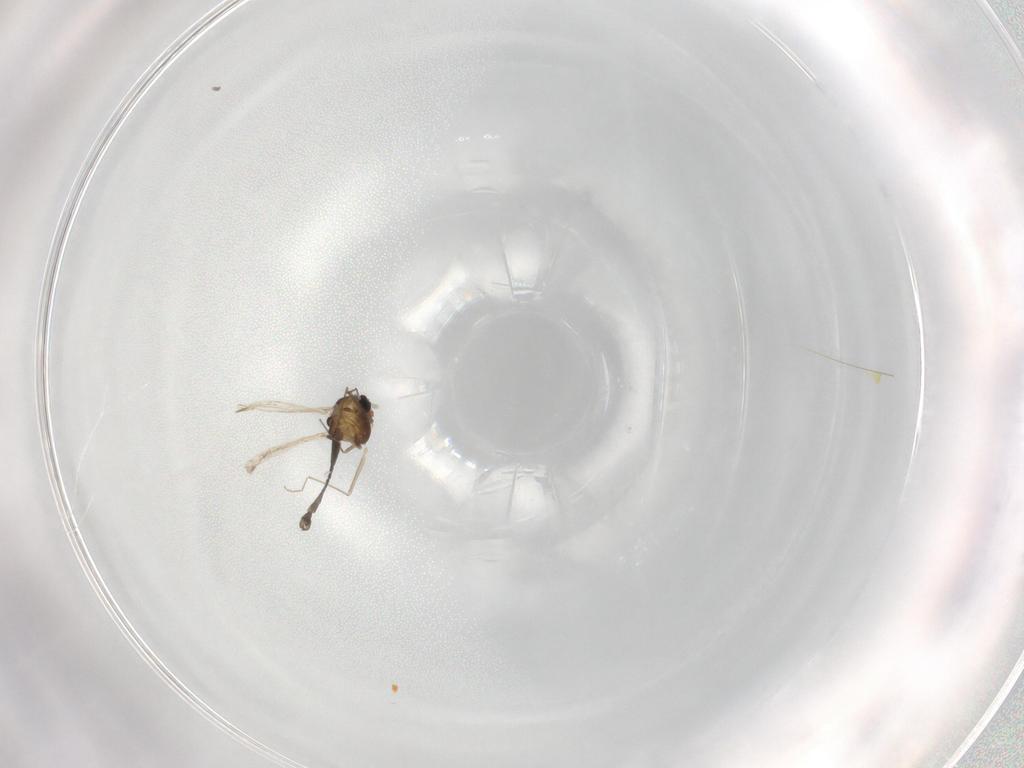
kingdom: Animalia
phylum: Arthropoda
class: Insecta
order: Diptera
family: Chironomidae
